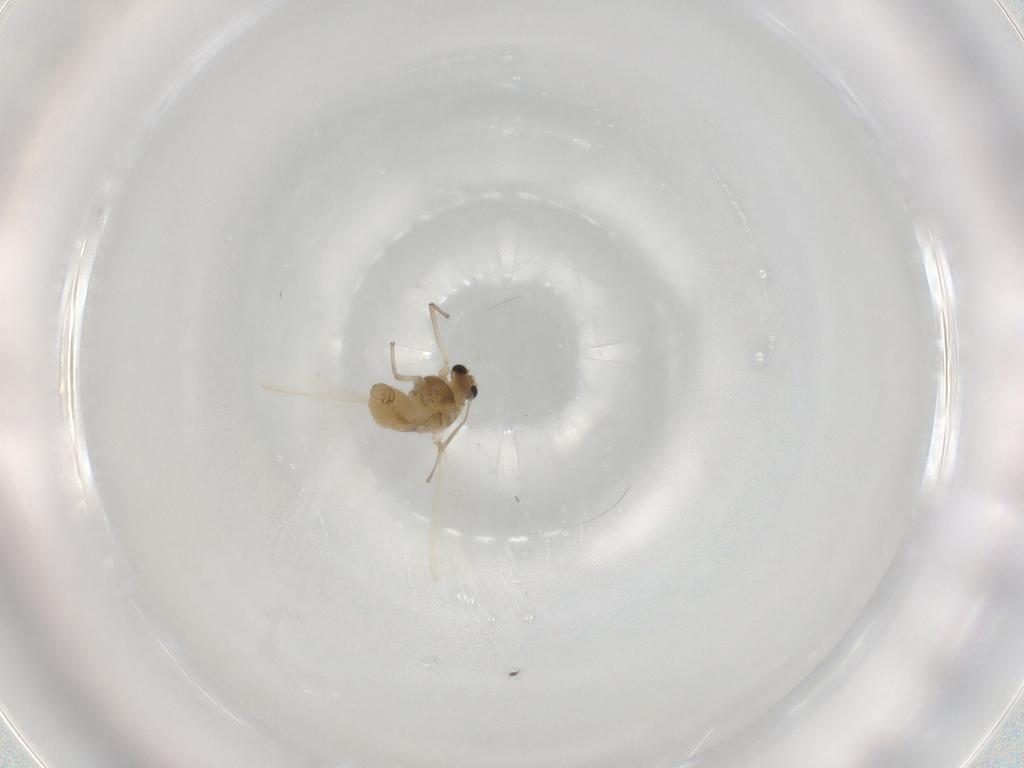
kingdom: Animalia
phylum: Arthropoda
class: Insecta
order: Diptera
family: Chironomidae
